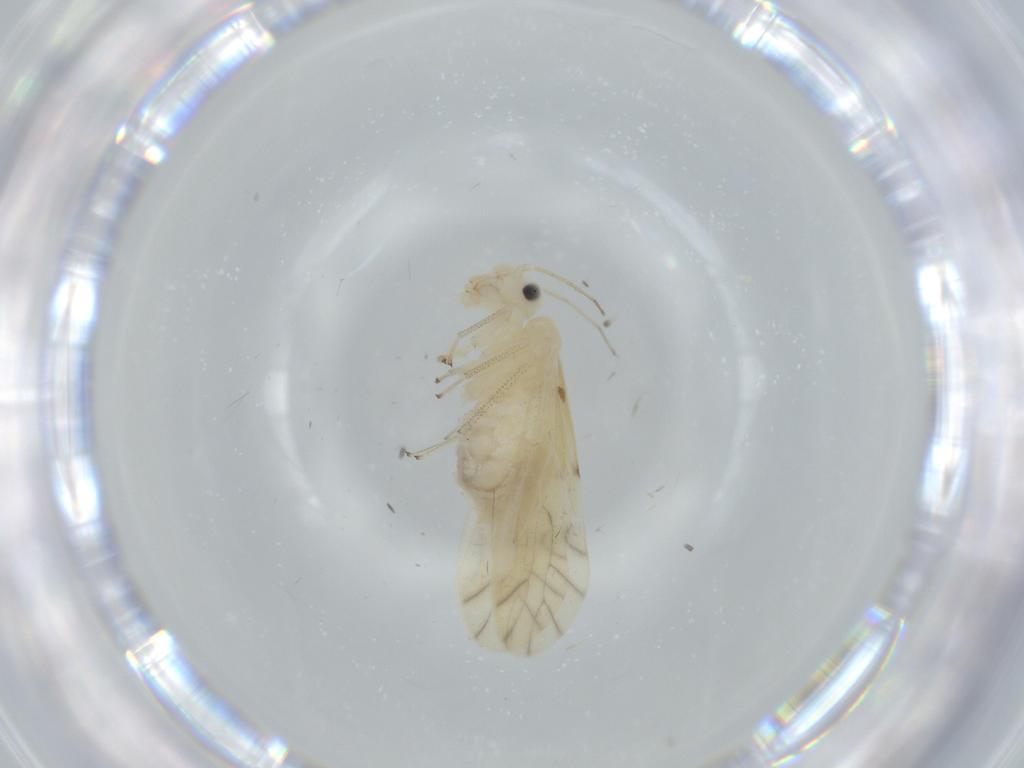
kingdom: Animalia
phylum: Arthropoda
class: Insecta
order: Psocodea
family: Caeciliusidae
